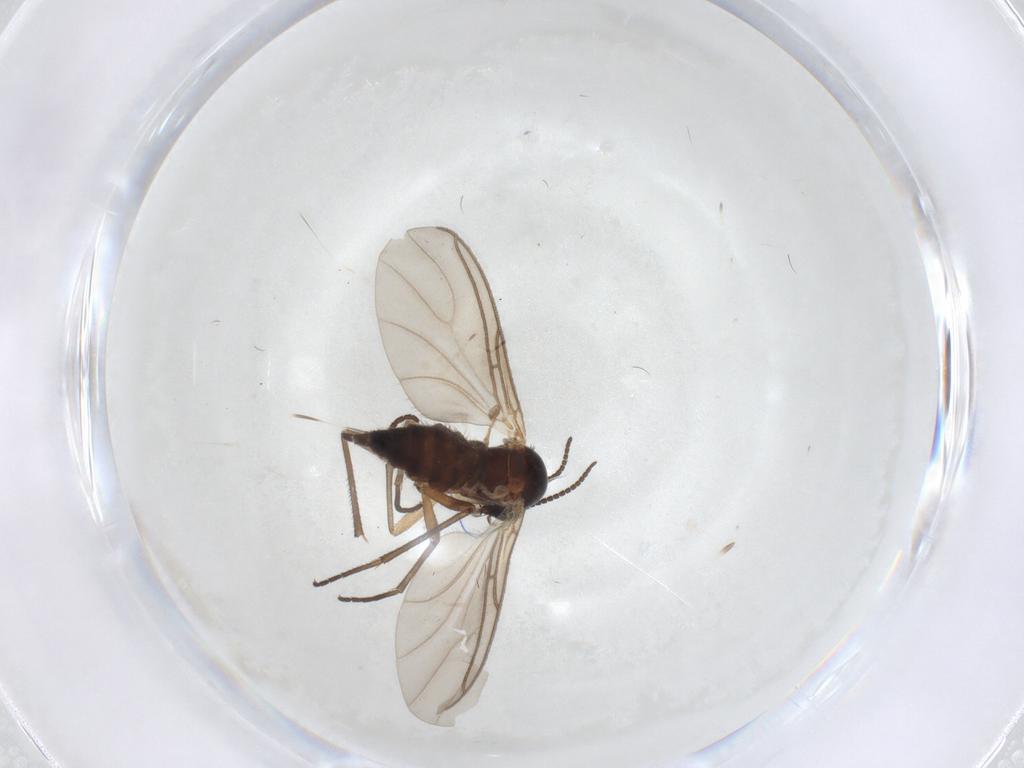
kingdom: Animalia
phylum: Arthropoda
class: Insecta
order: Diptera
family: Sciaridae
